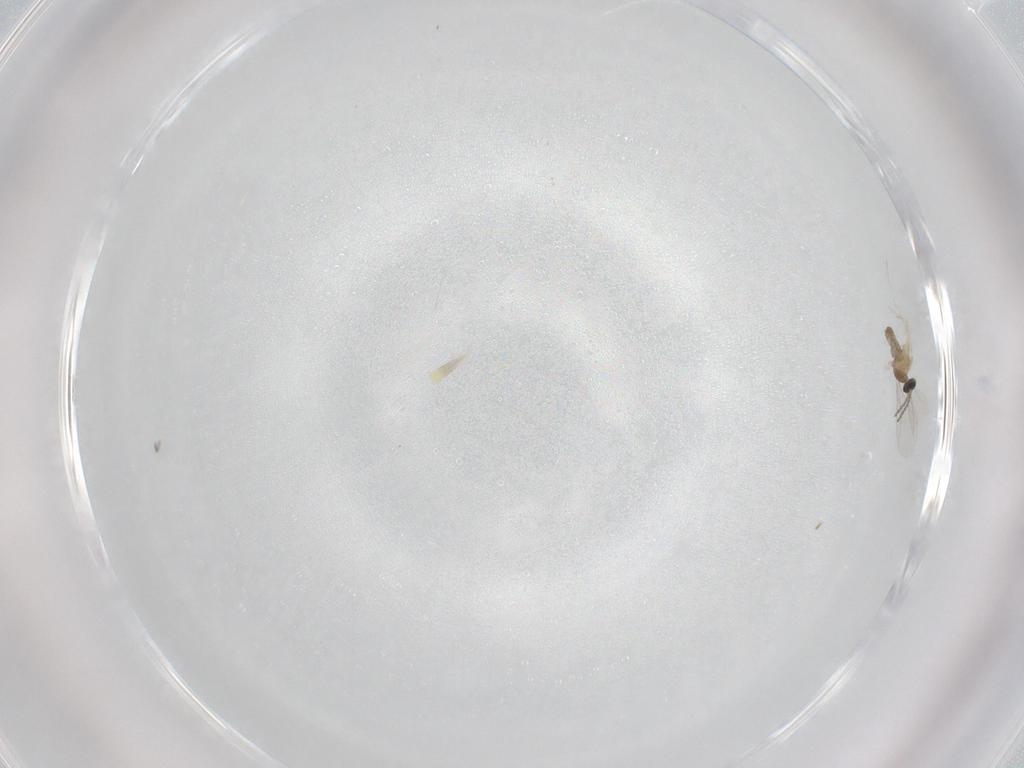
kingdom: Animalia
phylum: Arthropoda
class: Insecta
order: Diptera
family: Cecidomyiidae
